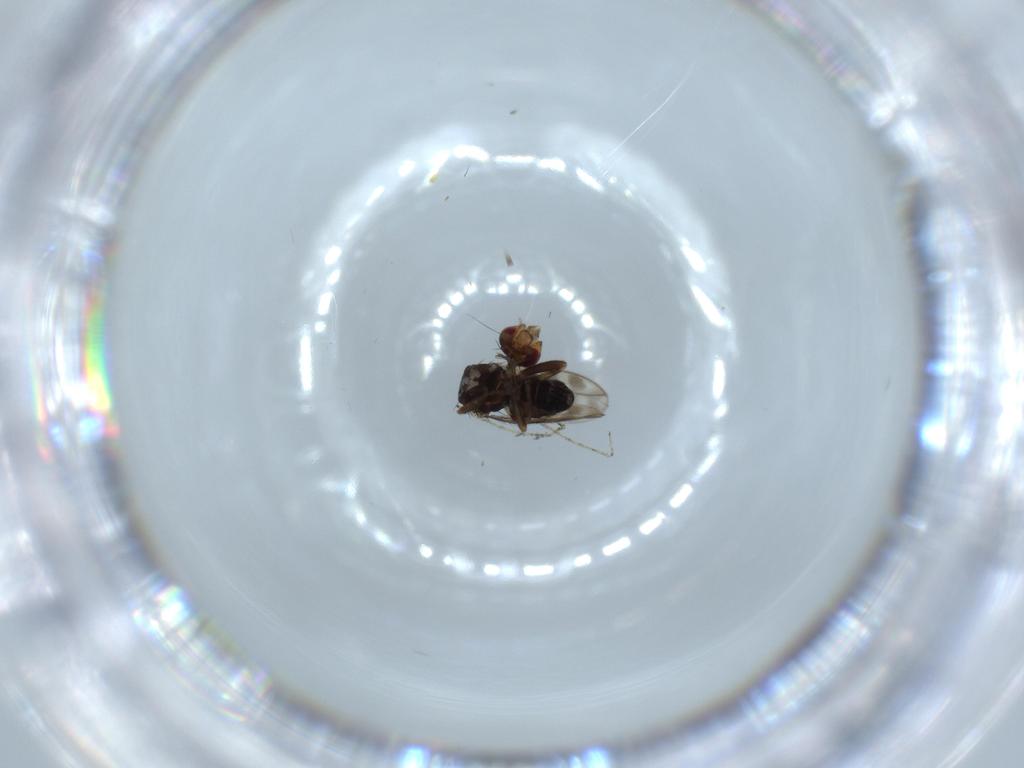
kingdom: Animalia
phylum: Arthropoda
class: Insecta
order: Diptera
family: Sphaeroceridae
